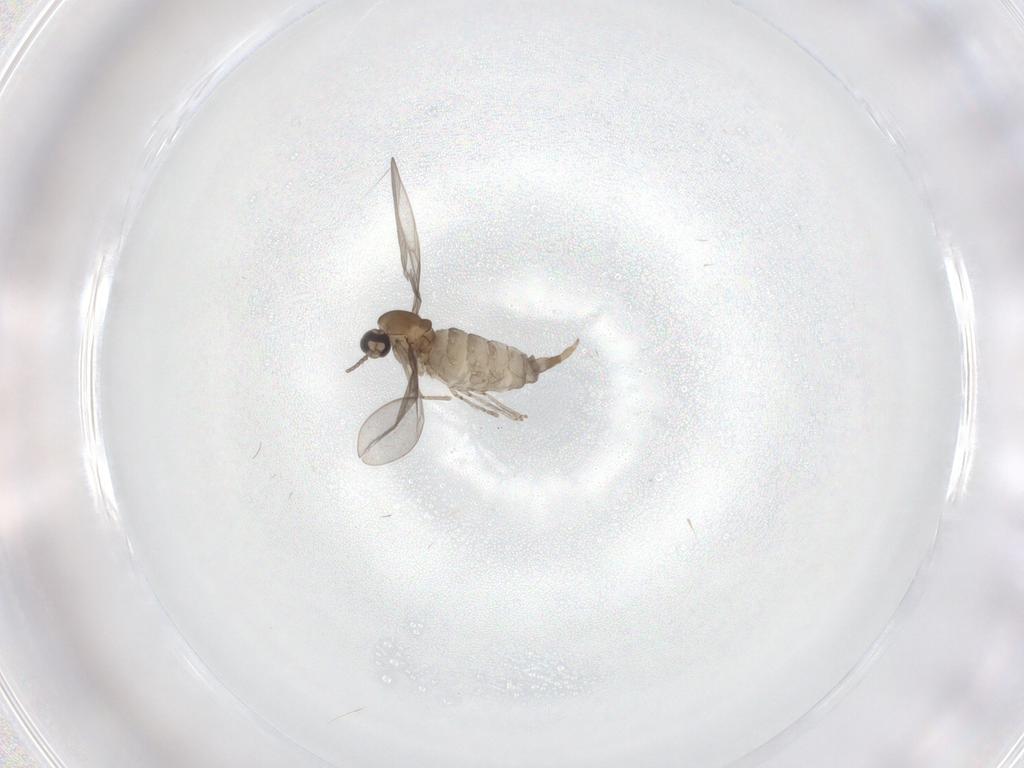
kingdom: Animalia
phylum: Arthropoda
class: Insecta
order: Diptera
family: Cecidomyiidae
